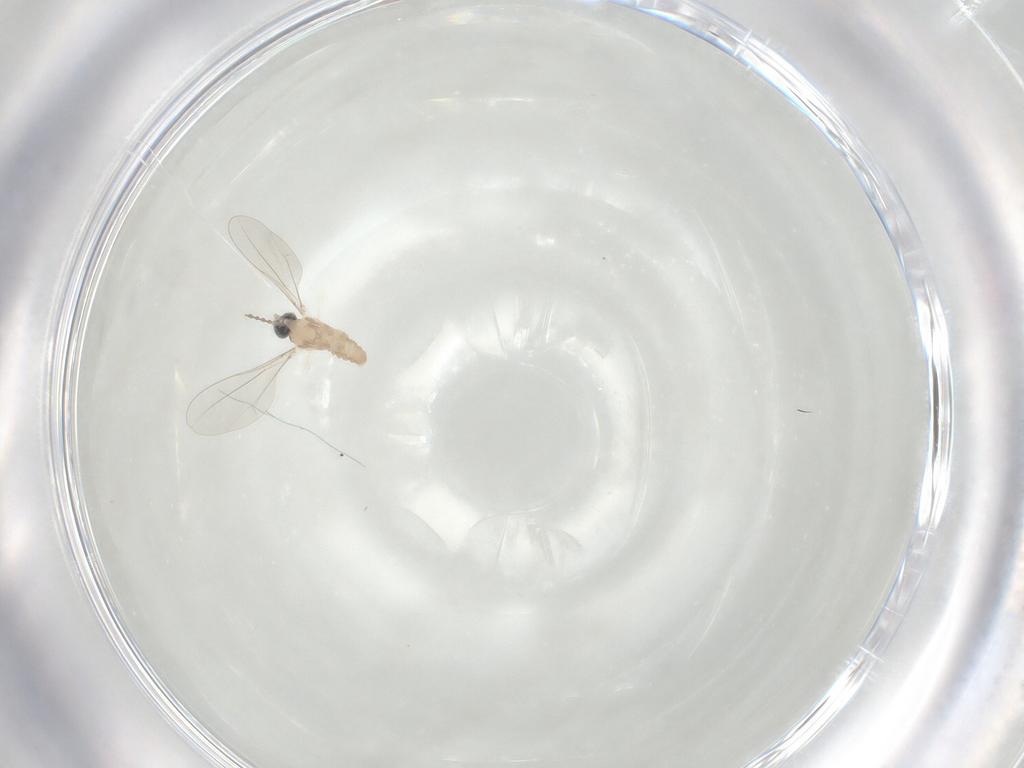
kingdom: Animalia
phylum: Arthropoda
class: Insecta
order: Diptera
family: Cecidomyiidae
